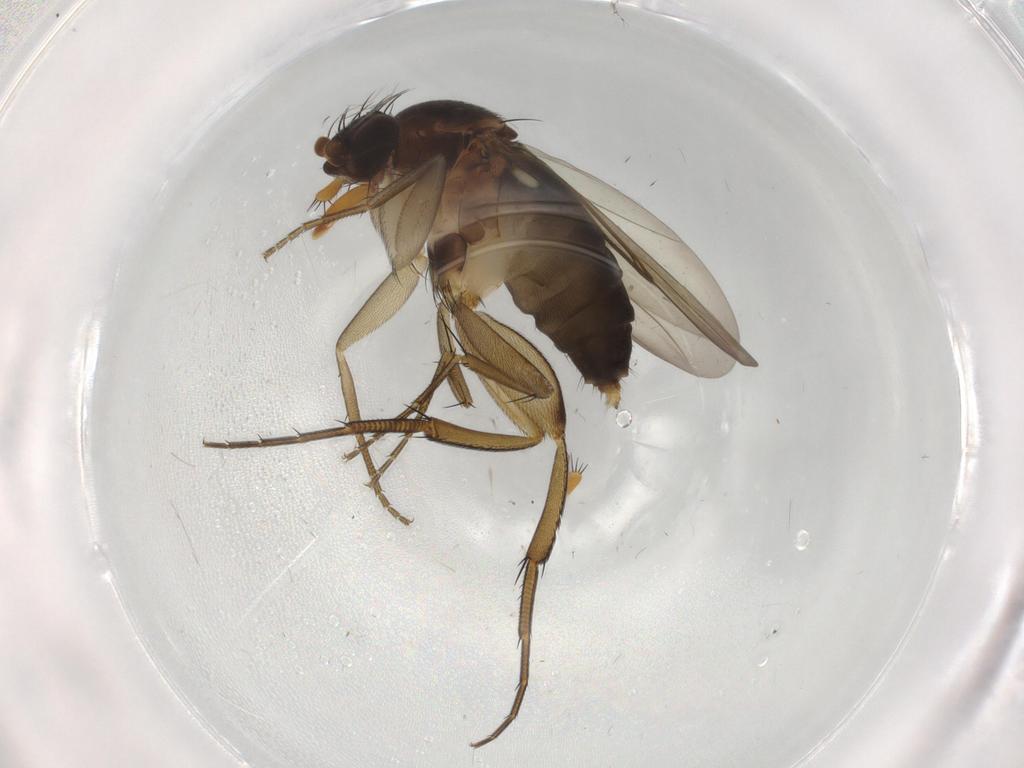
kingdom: Animalia
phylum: Arthropoda
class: Insecta
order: Diptera
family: Phoridae
